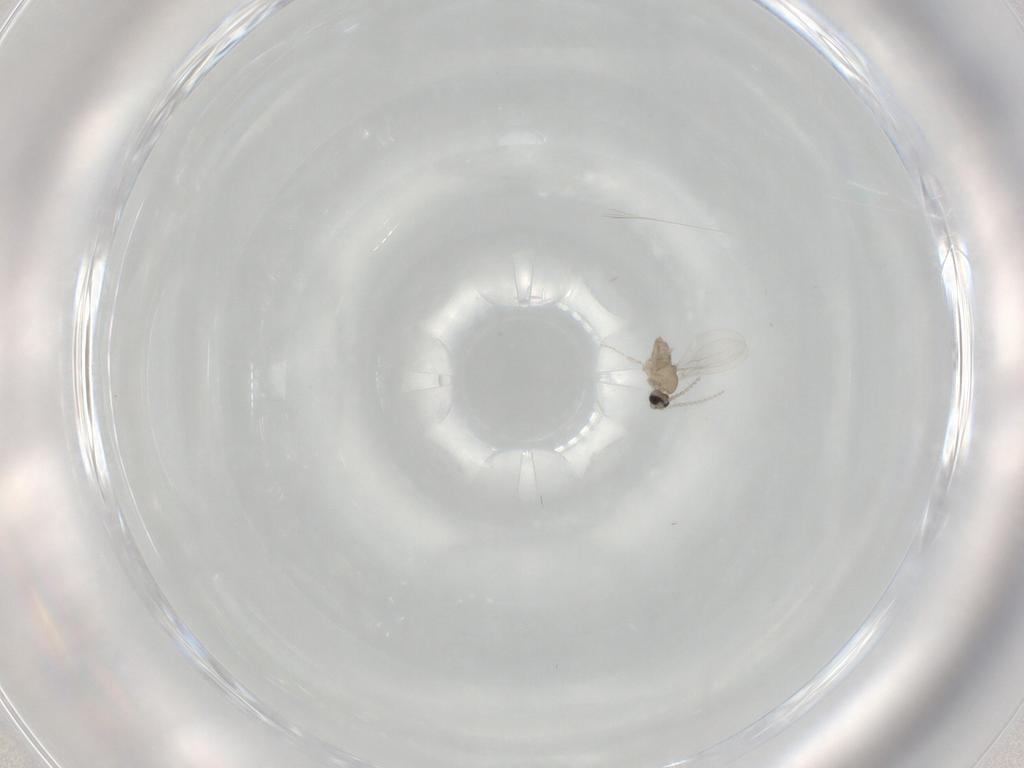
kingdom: Animalia
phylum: Arthropoda
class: Insecta
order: Diptera
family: Cecidomyiidae
